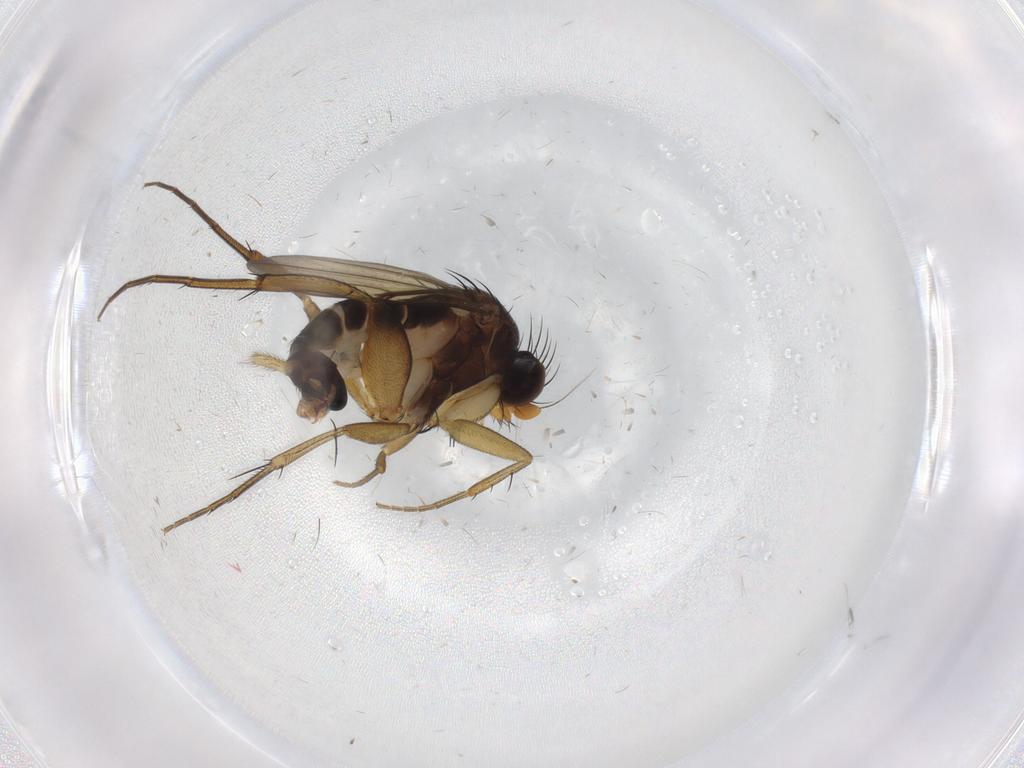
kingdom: Animalia
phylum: Arthropoda
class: Insecta
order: Diptera
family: Phoridae
